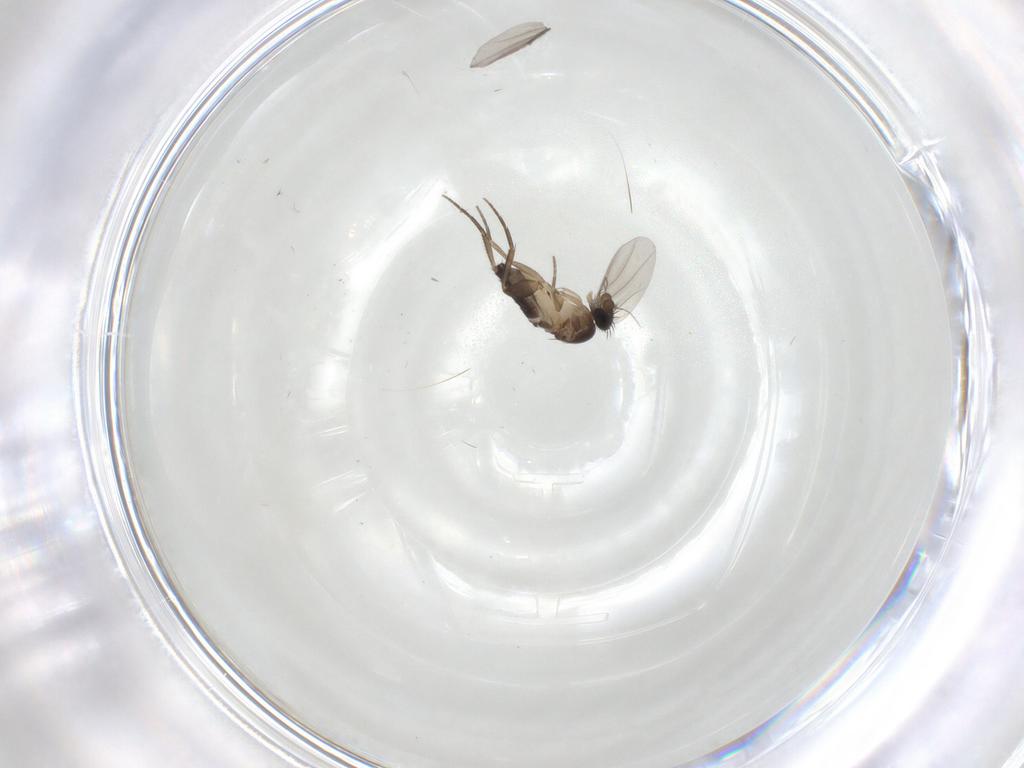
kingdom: Animalia
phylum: Arthropoda
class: Insecta
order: Diptera
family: Phoridae
